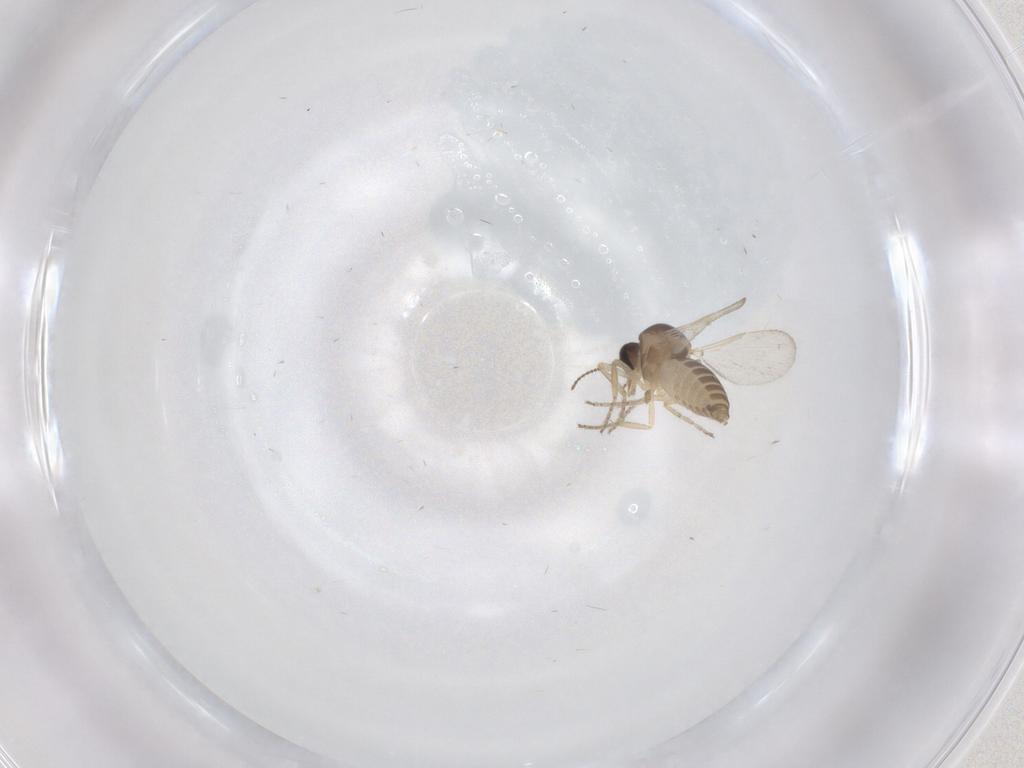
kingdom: Animalia
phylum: Arthropoda
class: Insecta
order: Diptera
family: Ceratopogonidae
